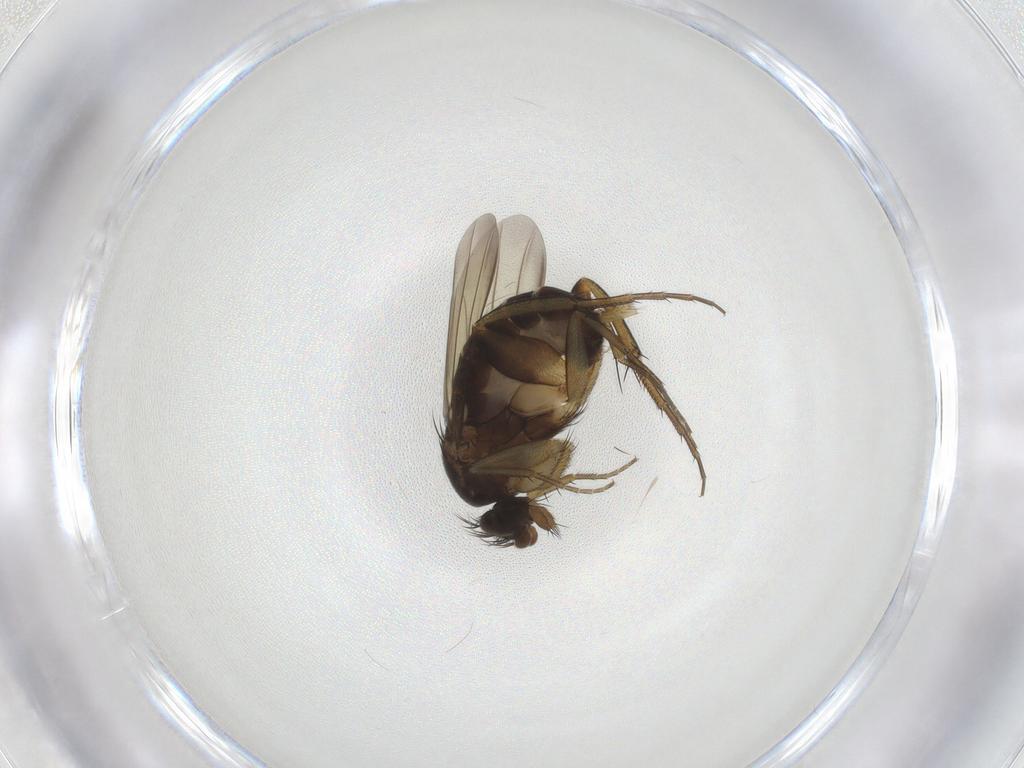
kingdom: Animalia
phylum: Arthropoda
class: Insecta
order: Diptera
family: Phoridae
